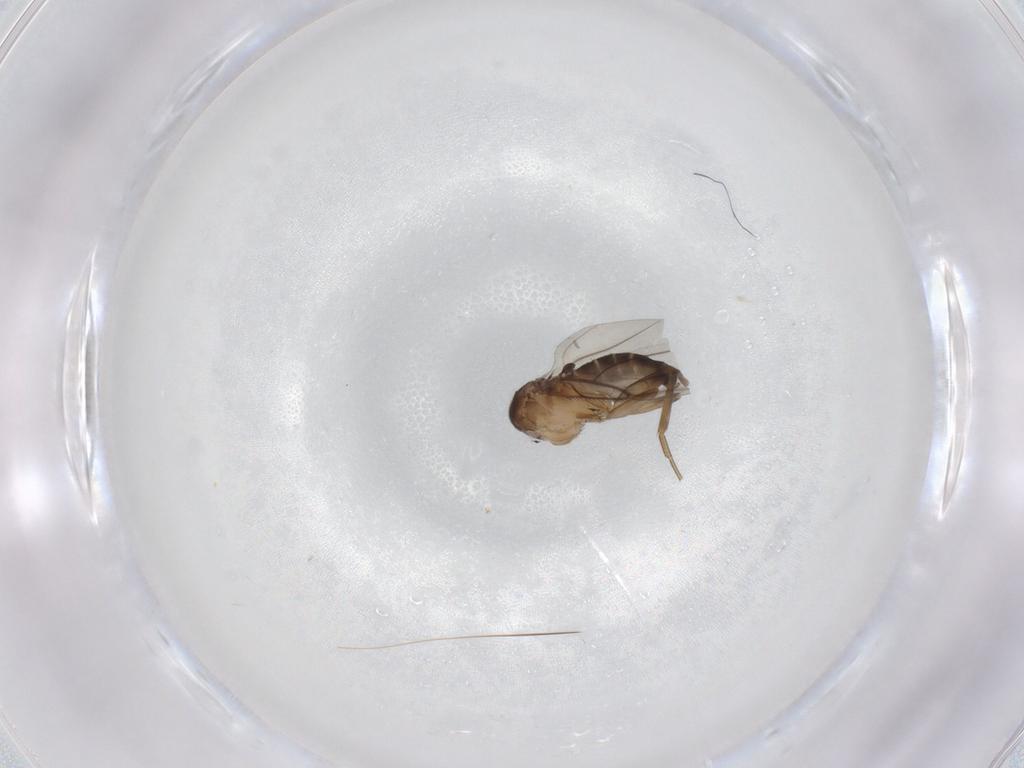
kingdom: Animalia
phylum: Arthropoda
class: Insecta
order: Diptera
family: Phoridae
